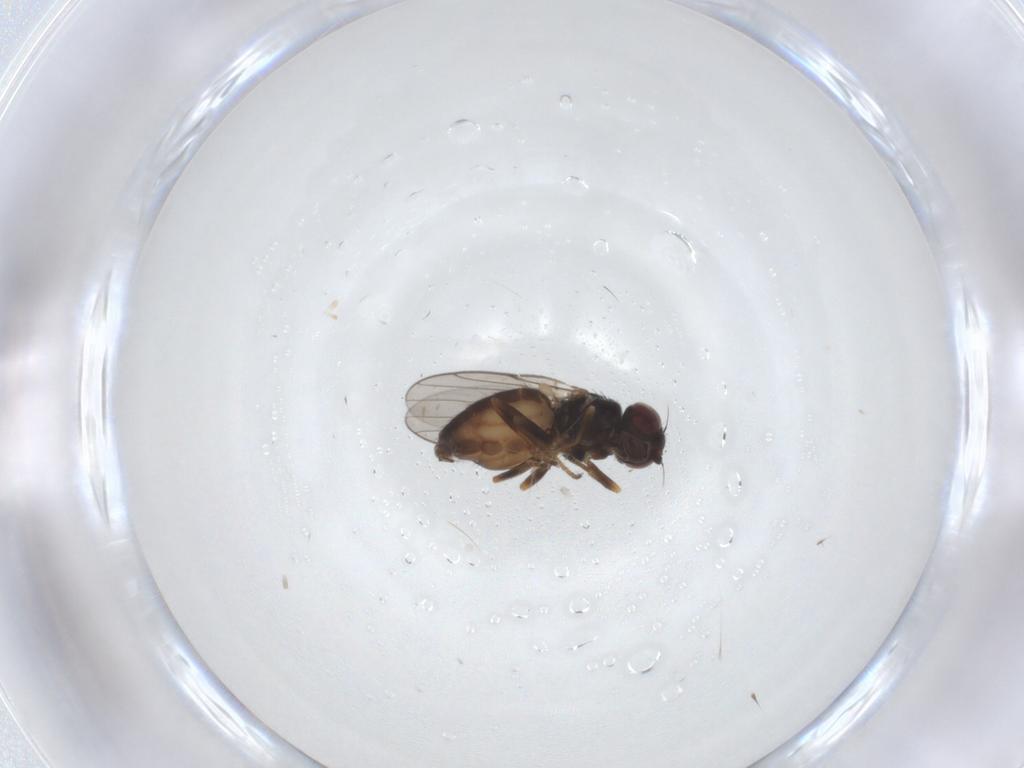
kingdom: Animalia
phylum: Arthropoda
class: Insecta
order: Diptera
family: Chloropidae
